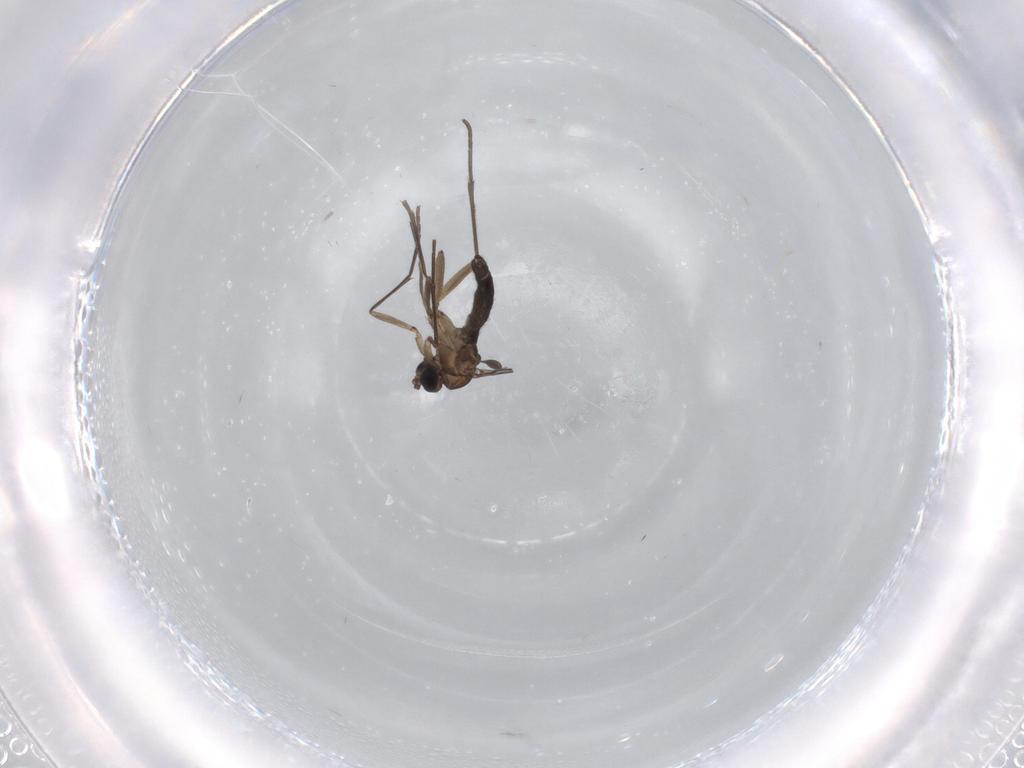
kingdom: Animalia
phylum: Arthropoda
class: Insecta
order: Diptera
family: Sciaridae
